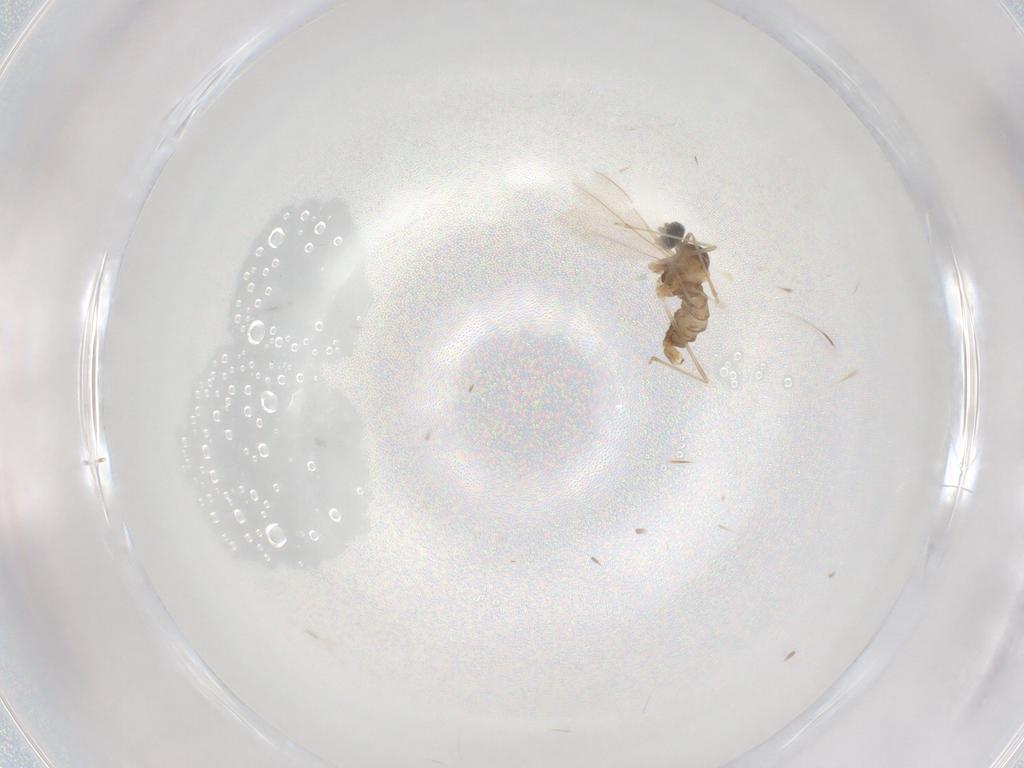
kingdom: Animalia
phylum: Arthropoda
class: Insecta
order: Diptera
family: Cecidomyiidae
